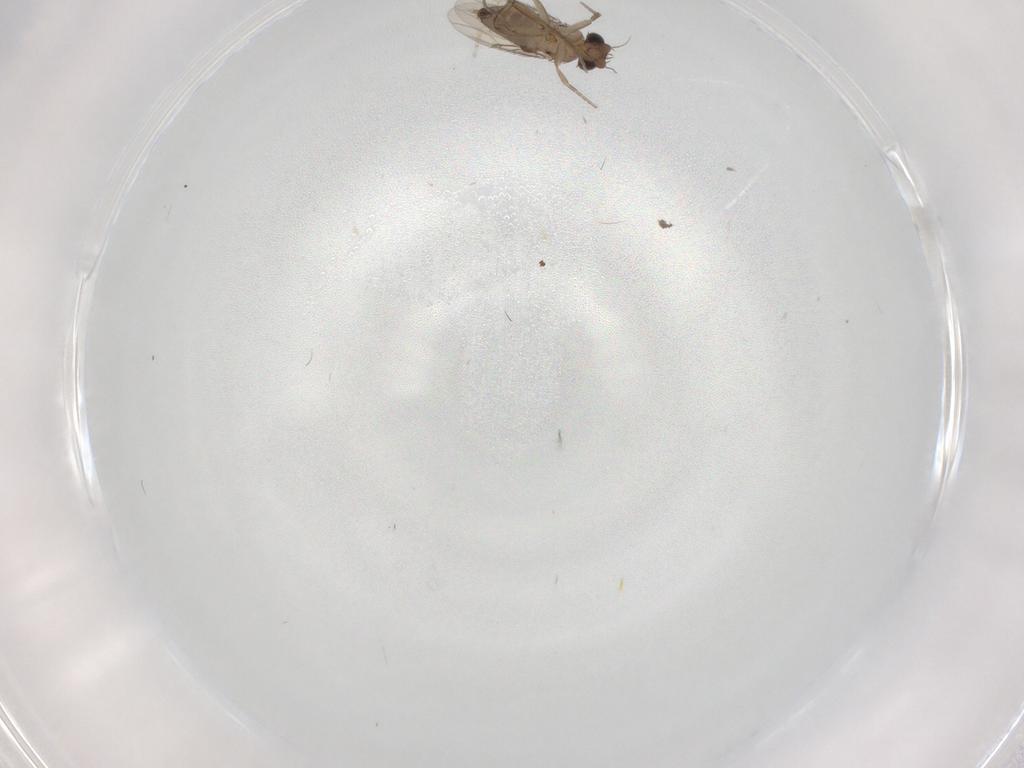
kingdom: Animalia
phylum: Arthropoda
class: Insecta
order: Diptera
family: Phoridae
